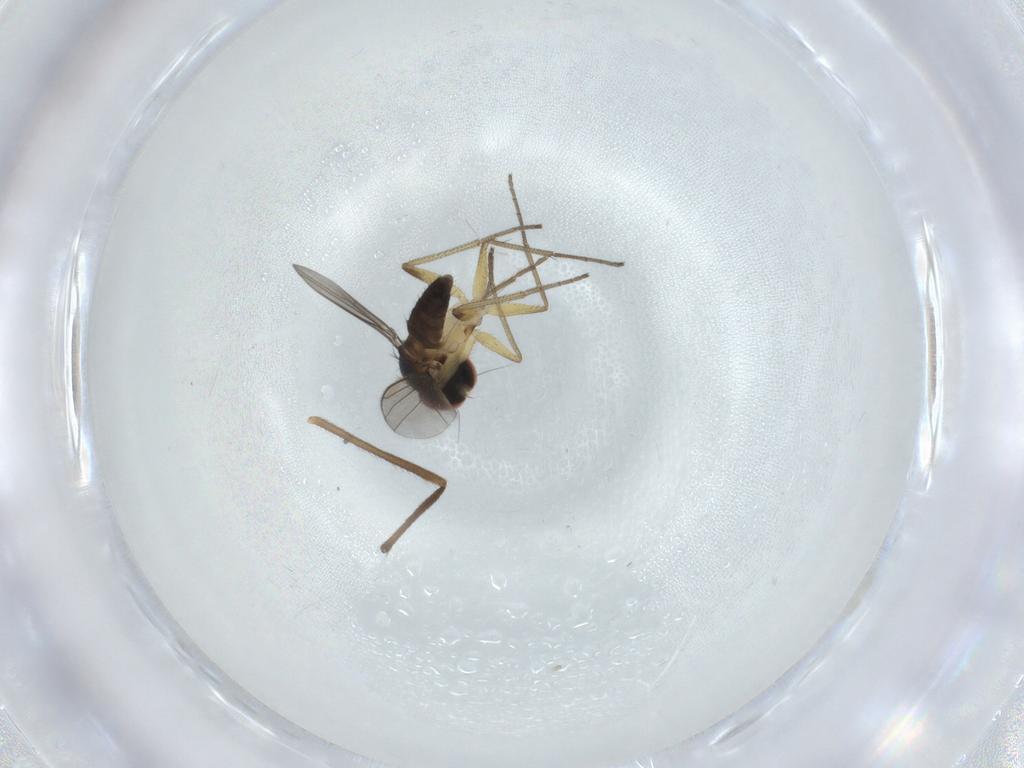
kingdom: Animalia
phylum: Arthropoda
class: Insecta
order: Diptera
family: Dolichopodidae
